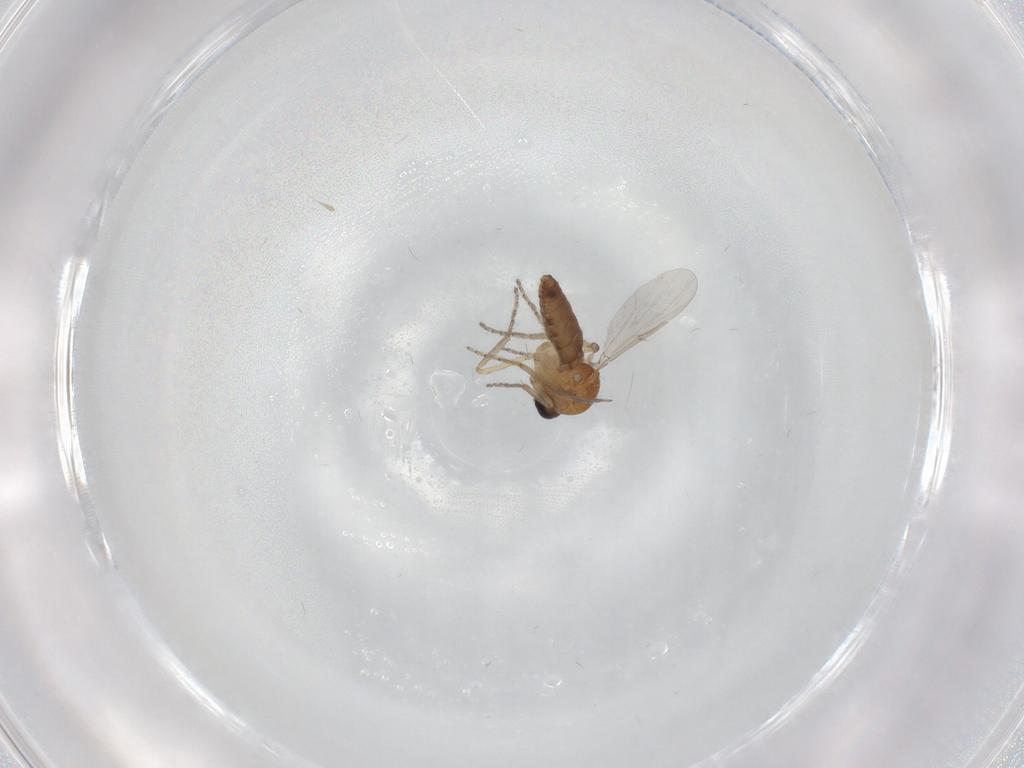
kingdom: Animalia
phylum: Arthropoda
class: Insecta
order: Diptera
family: Ceratopogonidae
